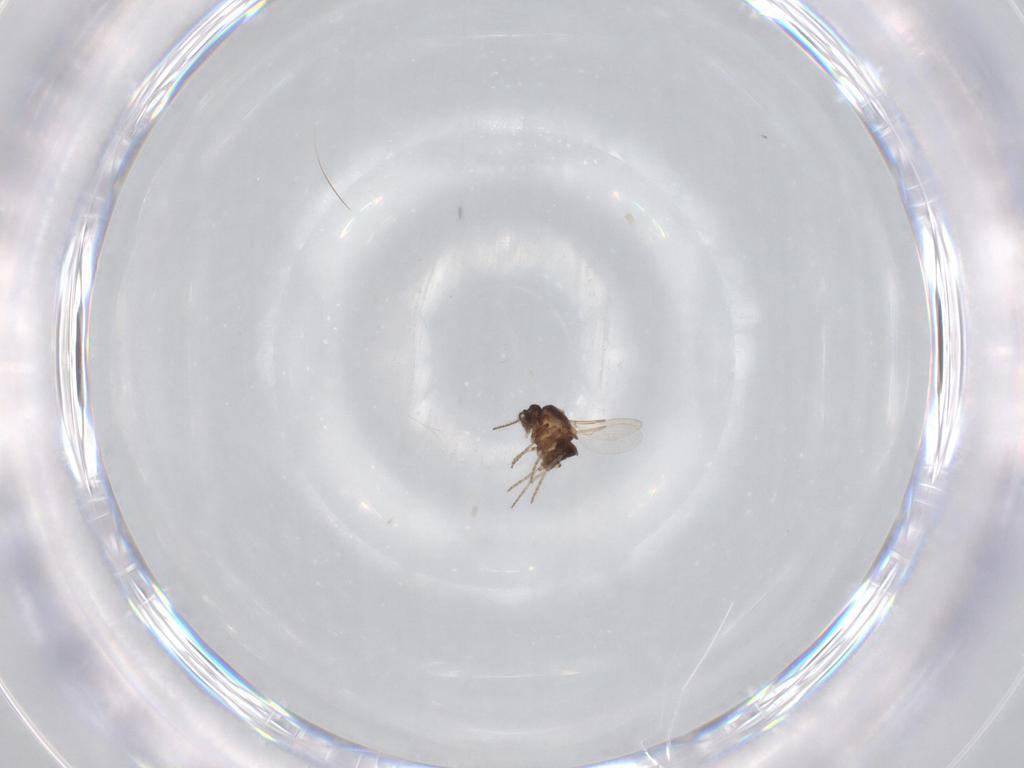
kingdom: Animalia
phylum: Arthropoda
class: Insecta
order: Diptera
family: Ceratopogonidae
